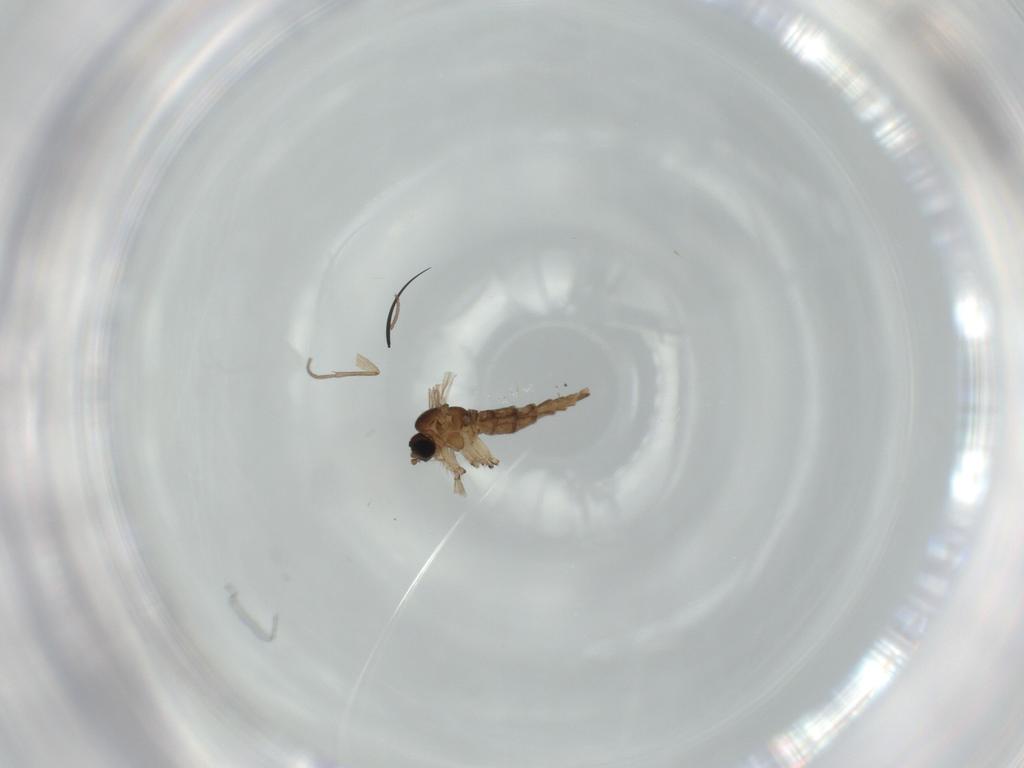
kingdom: Animalia
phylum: Arthropoda
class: Insecta
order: Diptera
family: Sciaridae
